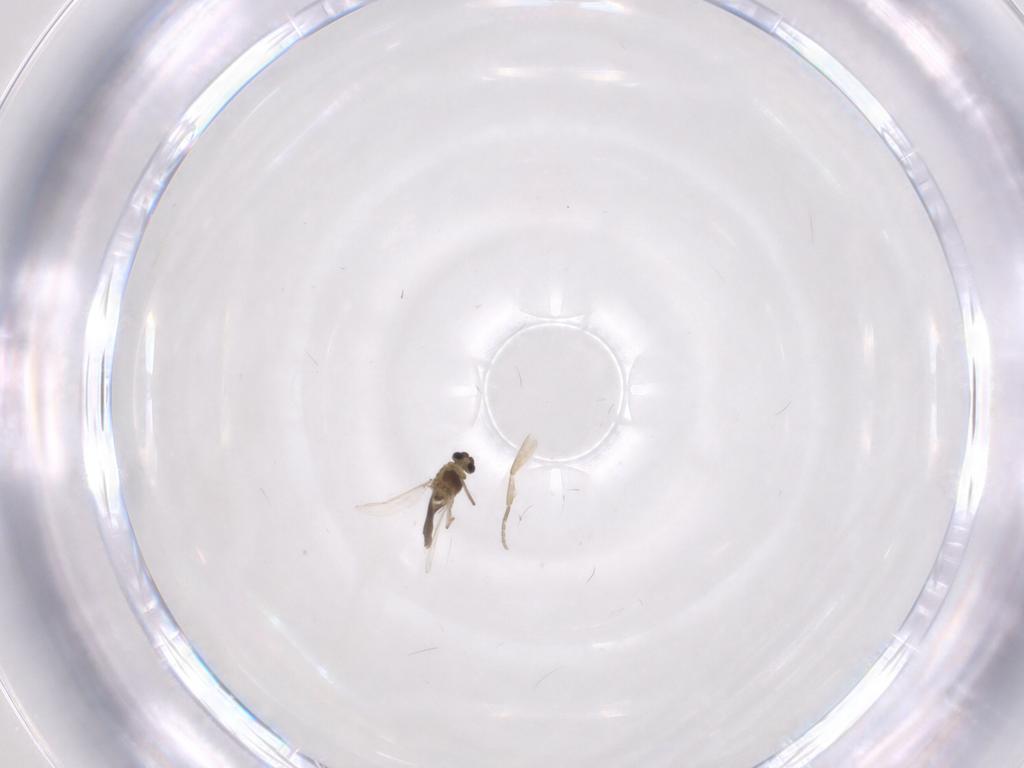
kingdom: Animalia
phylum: Arthropoda
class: Insecta
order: Diptera
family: Phoridae
